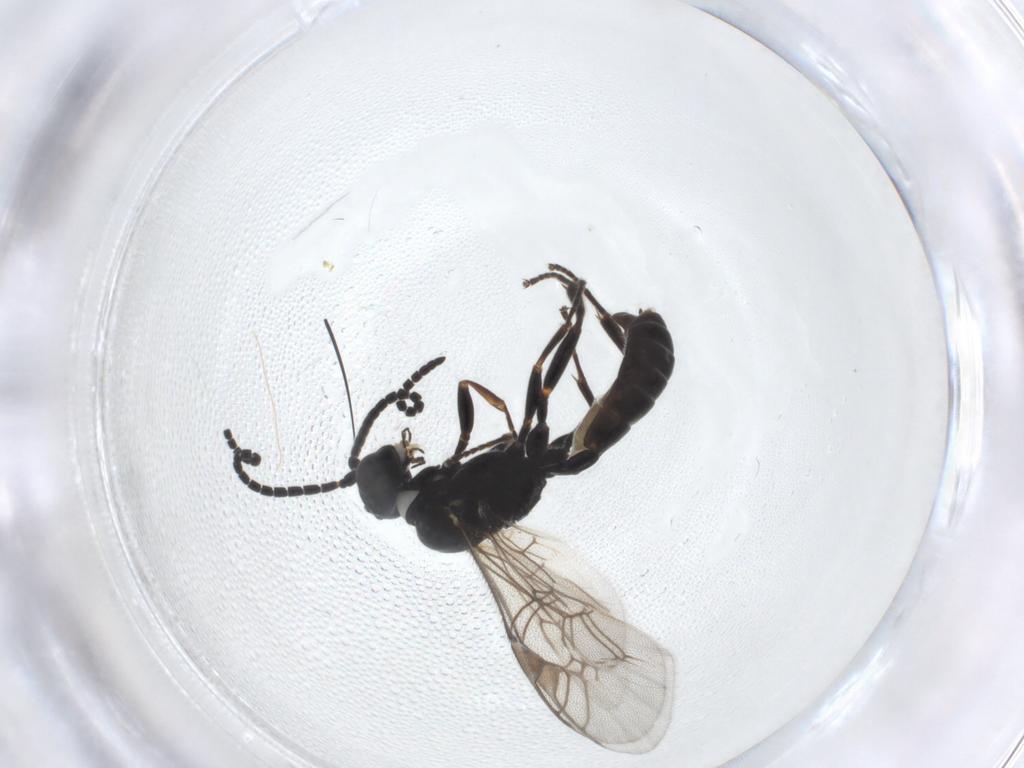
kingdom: Animalia
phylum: Arthropoda
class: Insecta
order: Hymenoptera
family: Ichneumonidae
